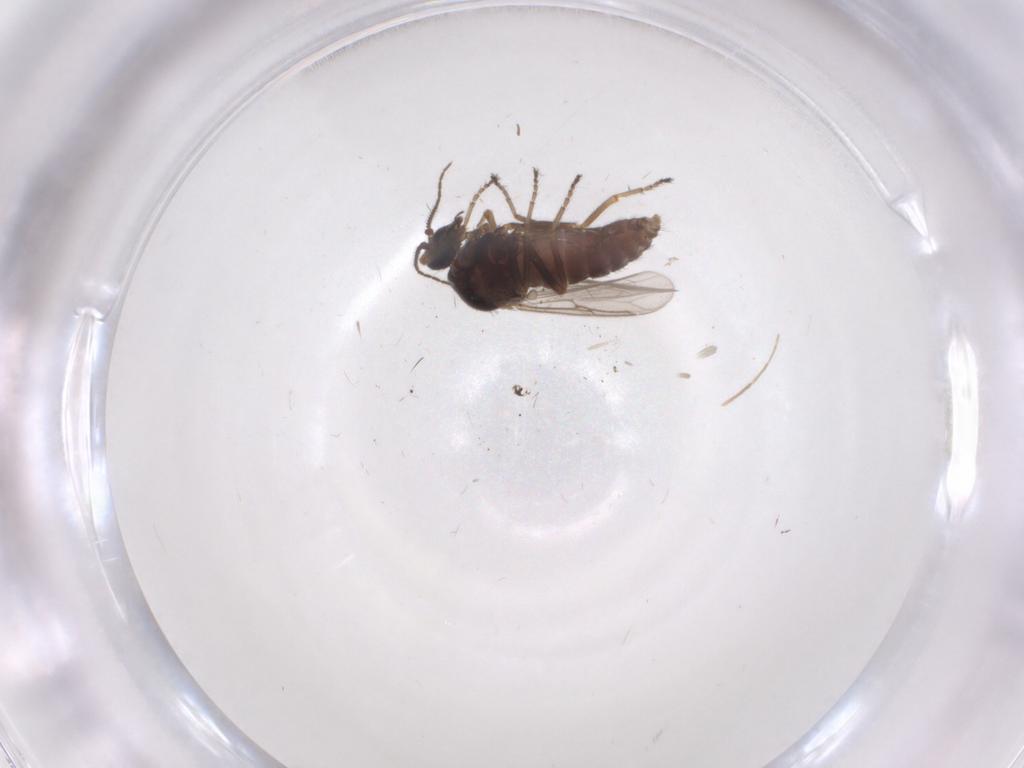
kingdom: Animalia
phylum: Arthropoda
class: Insecta
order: Diptera
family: Ceratopogonidae
